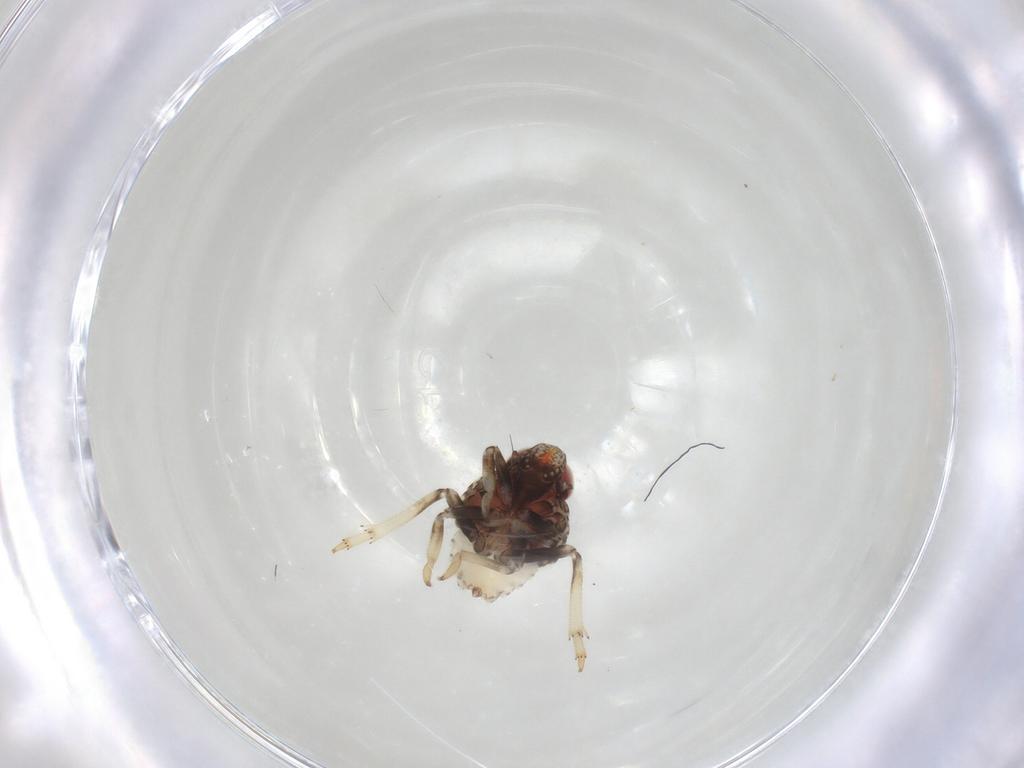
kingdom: Animalia
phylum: Arthropoda
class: Insecta
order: Hemiptera
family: Issidae
